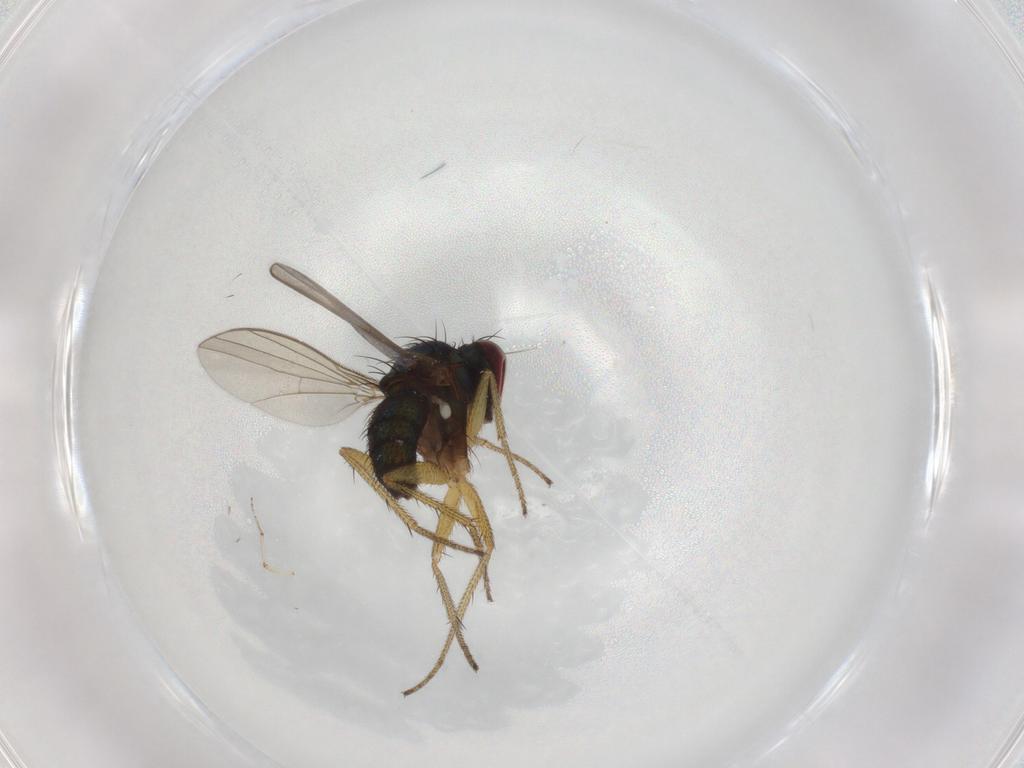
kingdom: Animalia
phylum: Arthropoda
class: Insecta
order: Diptera
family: Dolichopodidae
